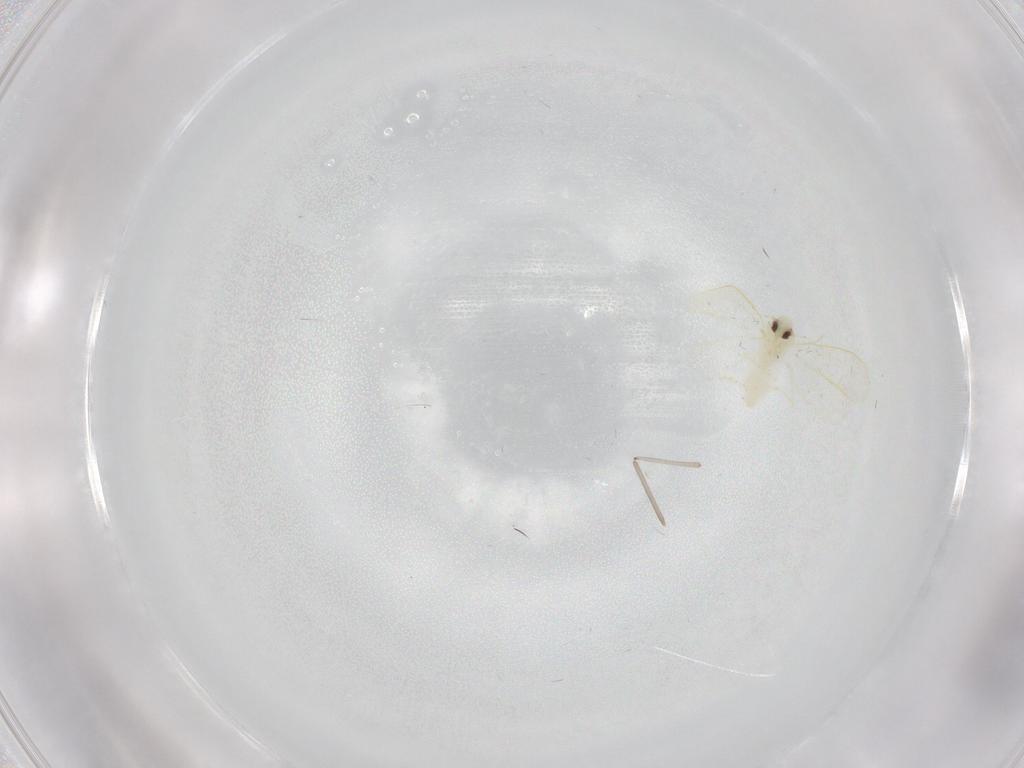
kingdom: Animalia
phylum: Arthropoda
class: Insecta
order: Hemiptera
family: Aleyrodidae
